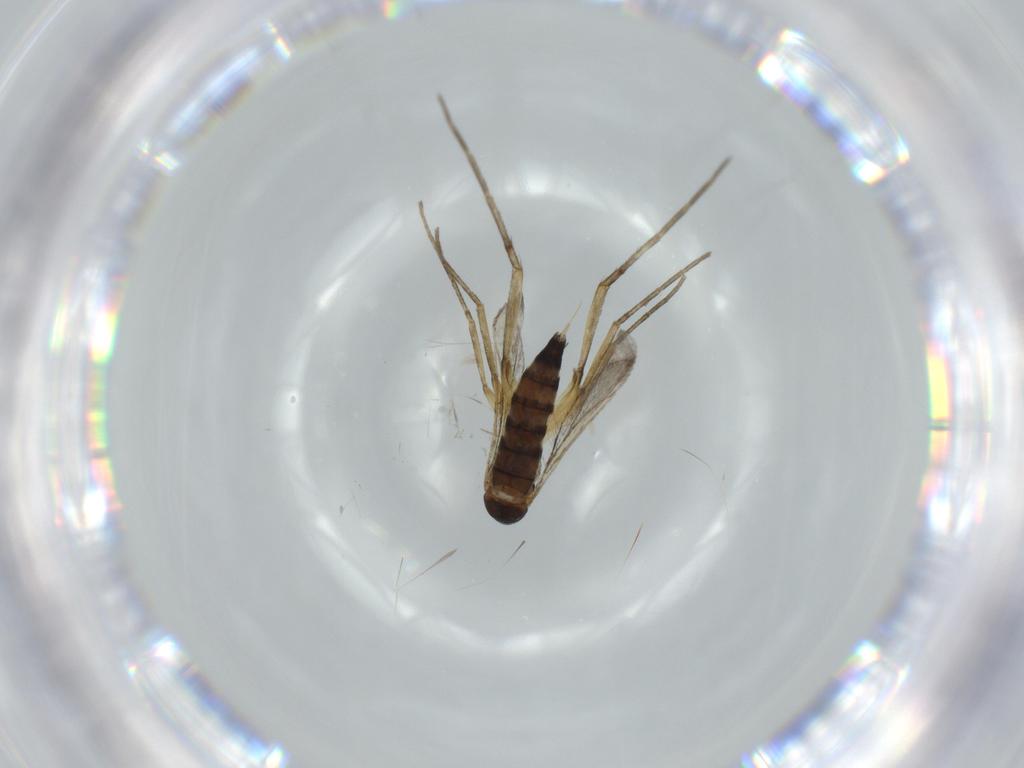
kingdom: Animalia
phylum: Arthropoda
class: Insecta
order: Diptera
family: Cecidomyiidae
